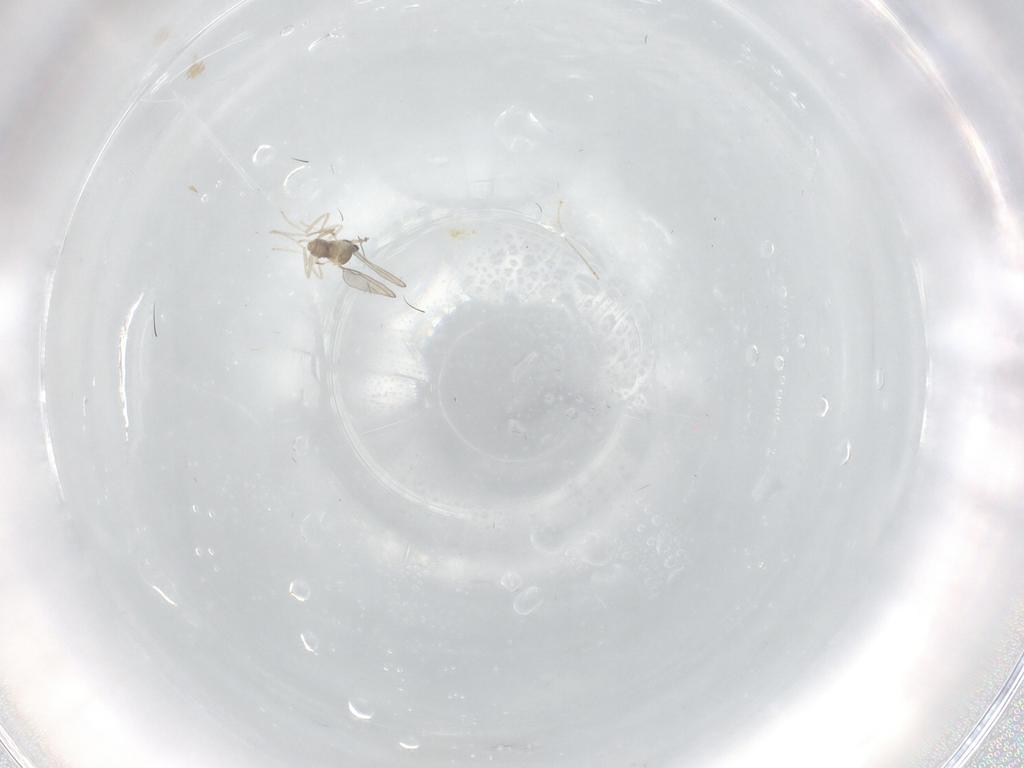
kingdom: Animalia
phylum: Arthropoda
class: Insecta
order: Diptera
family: Cecidomyiidae
